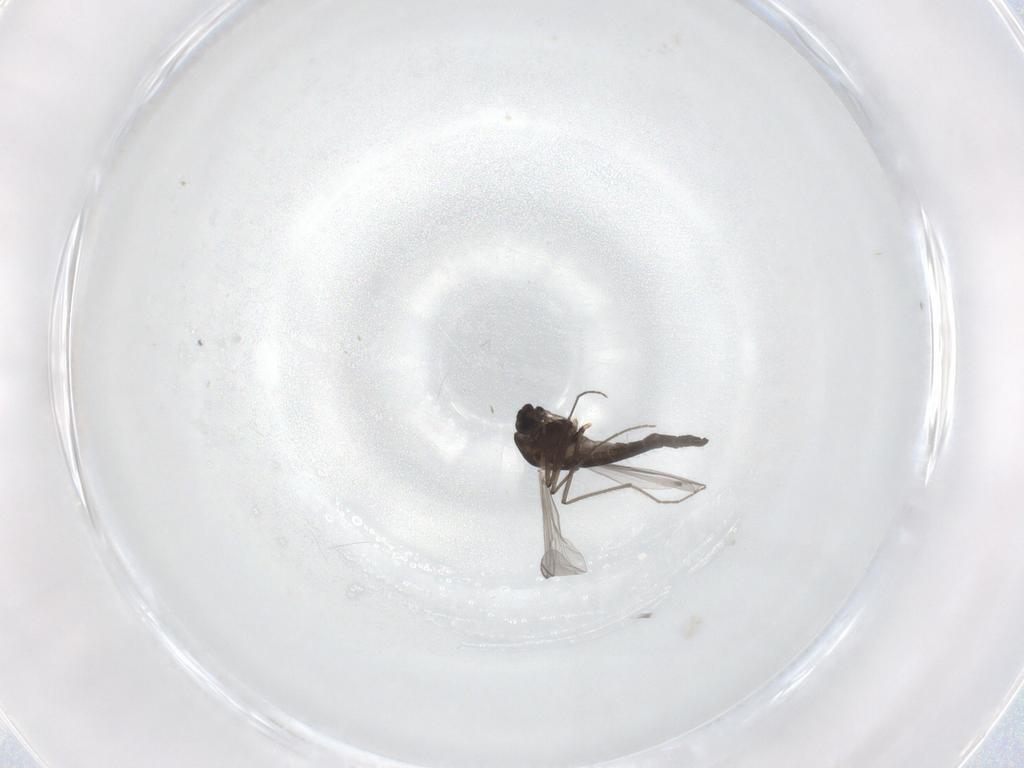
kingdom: Animalia
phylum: Arthropoda
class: Insecta
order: Diptera
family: Chironomidae
